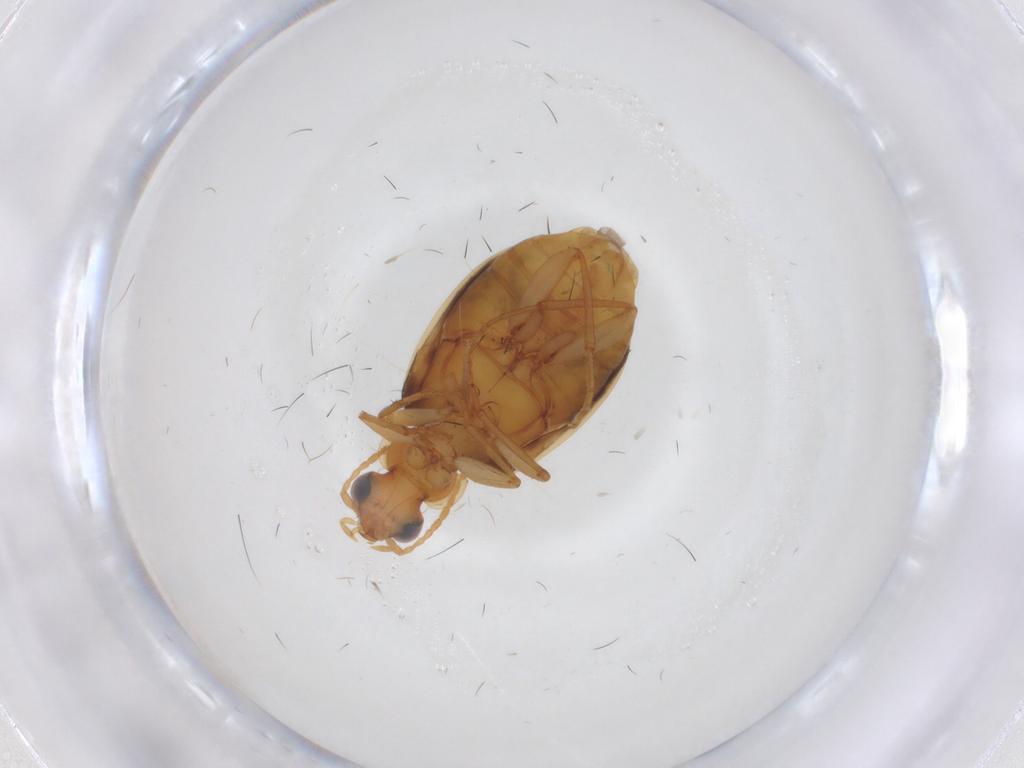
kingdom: Animalia
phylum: Arthropoda
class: Insecta
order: Coleoptera
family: Carabidae
